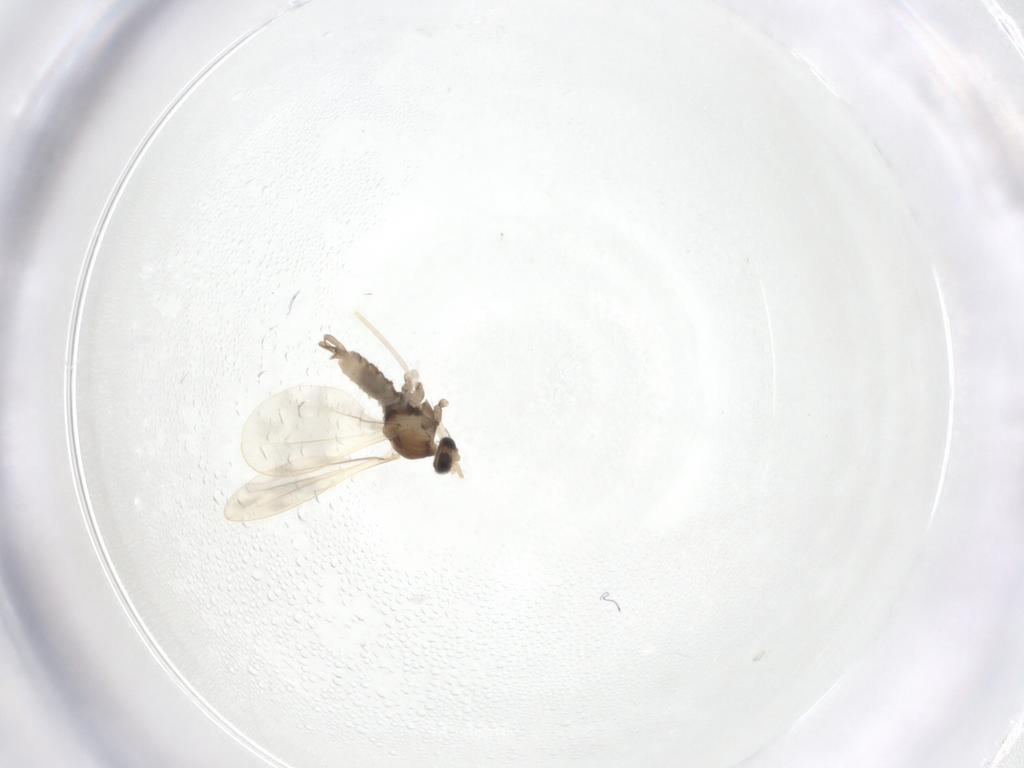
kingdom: Animalia
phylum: Arthropoda
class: Insecta
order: Diptera
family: Cecidomyiidae
